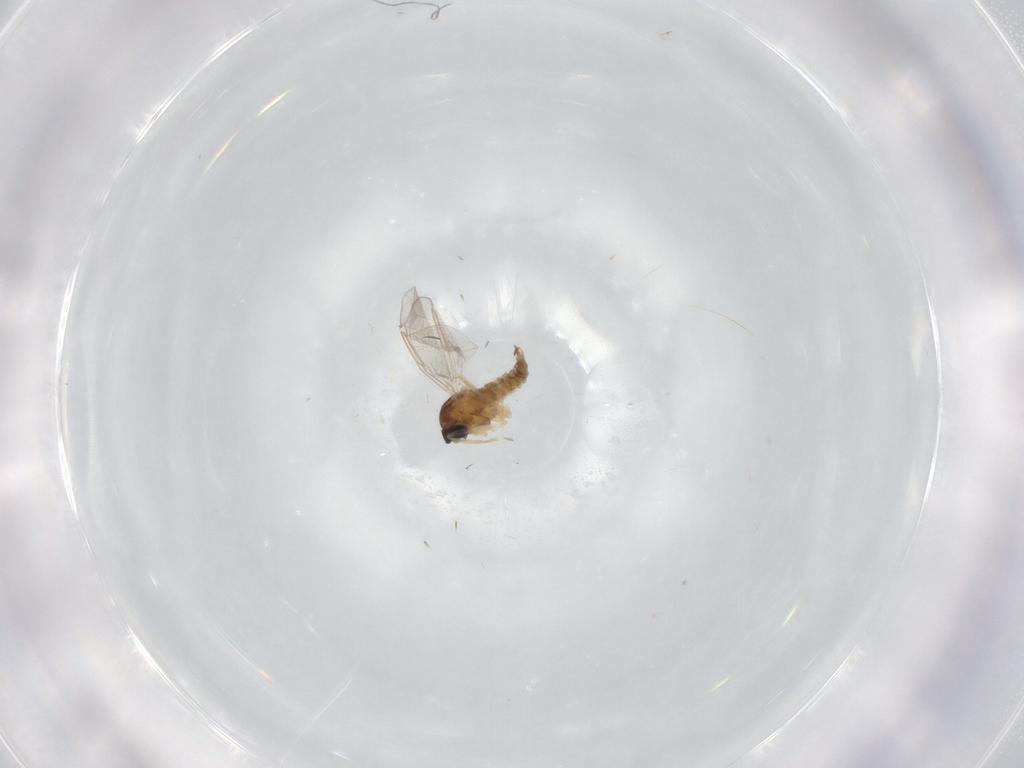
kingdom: Animalia
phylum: Arthropoda
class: Insecta
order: Diptera
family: Cecidomyiidae
